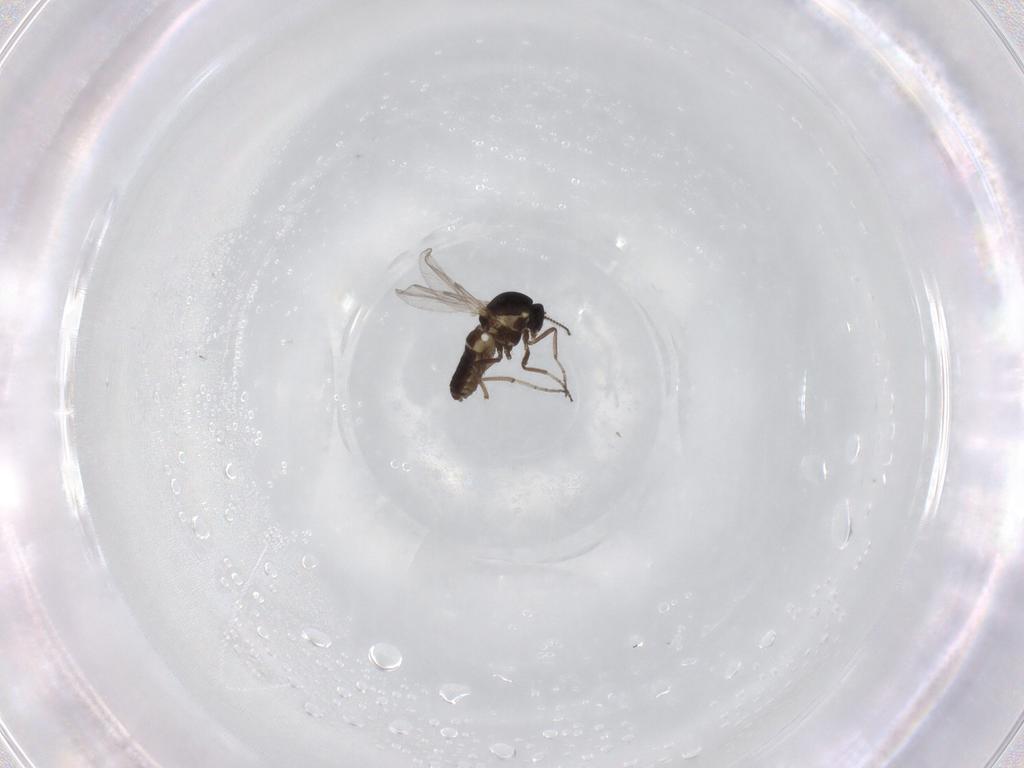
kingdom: Animalia
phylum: Arthropoda
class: Insecta
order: Diptera
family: Ceratopogonidae
